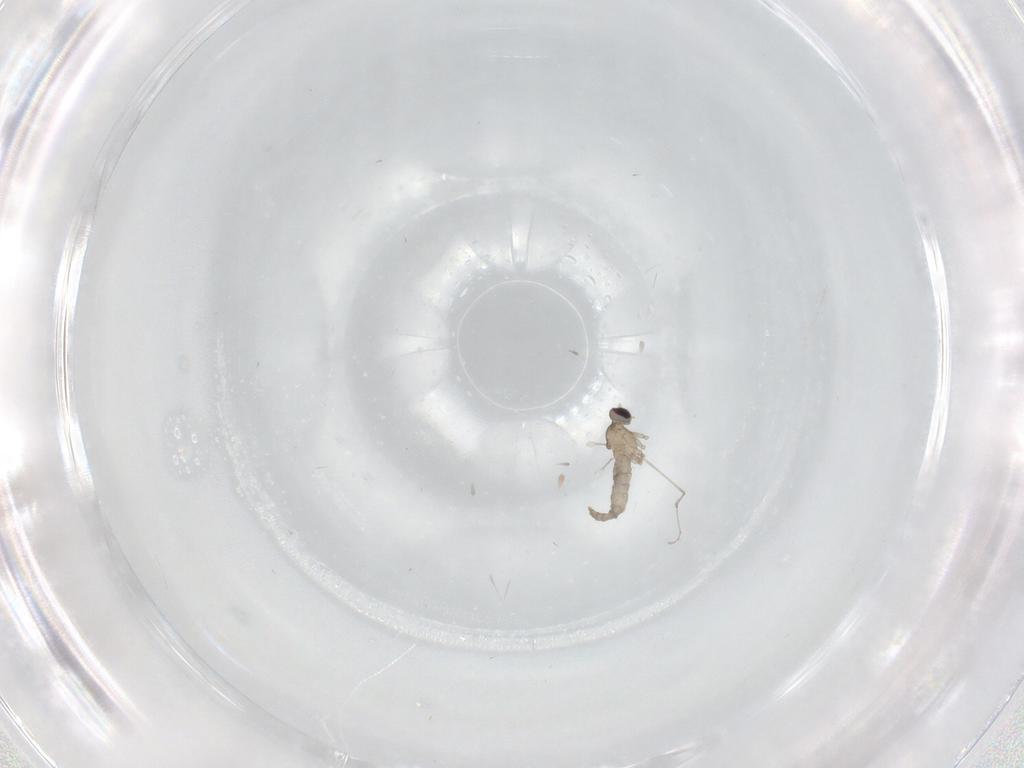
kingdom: Animalia
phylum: Arthropoda
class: Insecta
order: Diptera
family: Cecidomyiidae
